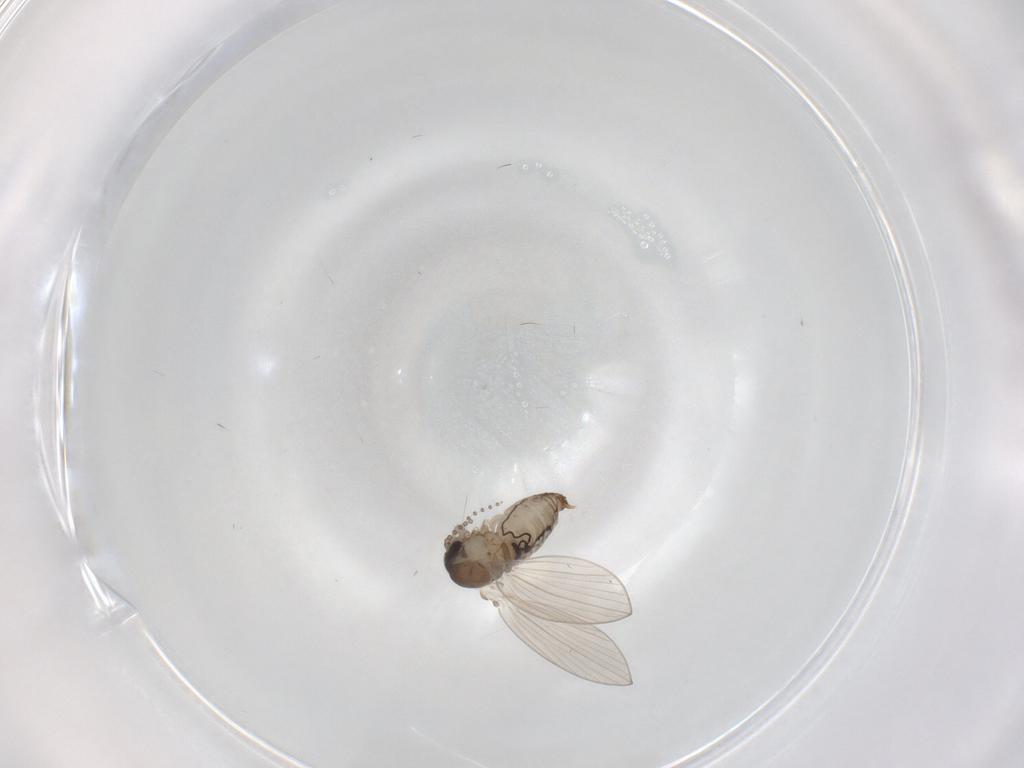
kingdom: Animalia
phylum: Arthropoda
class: Insecta
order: Diptera
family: Psychodidae
